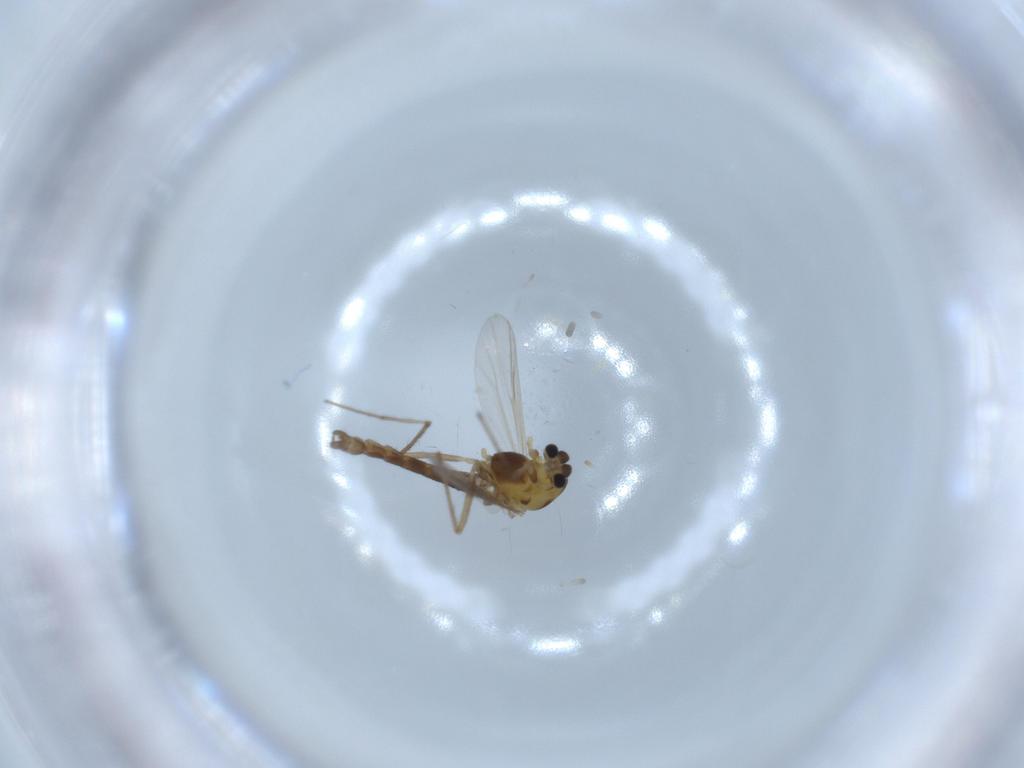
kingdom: Animalia
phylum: Arthropoda
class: Insecta
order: Diptera
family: Chironomidae
